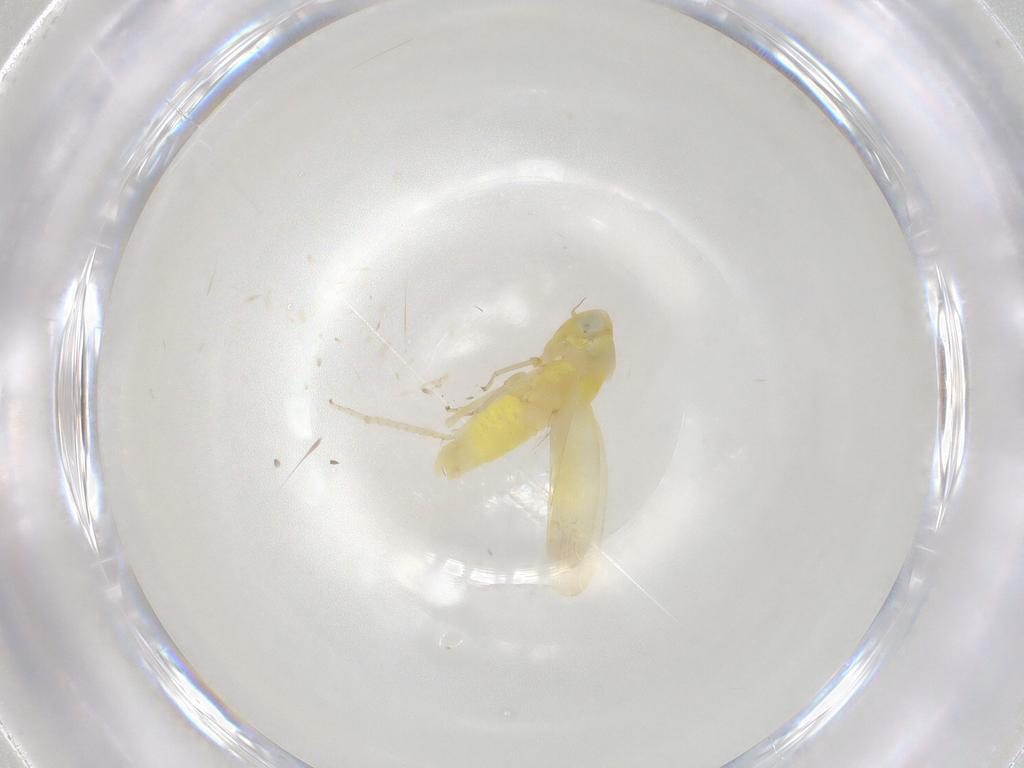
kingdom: Animalia
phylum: Arthropoda
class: Insecta
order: Hemiptera
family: Cicadellidae
